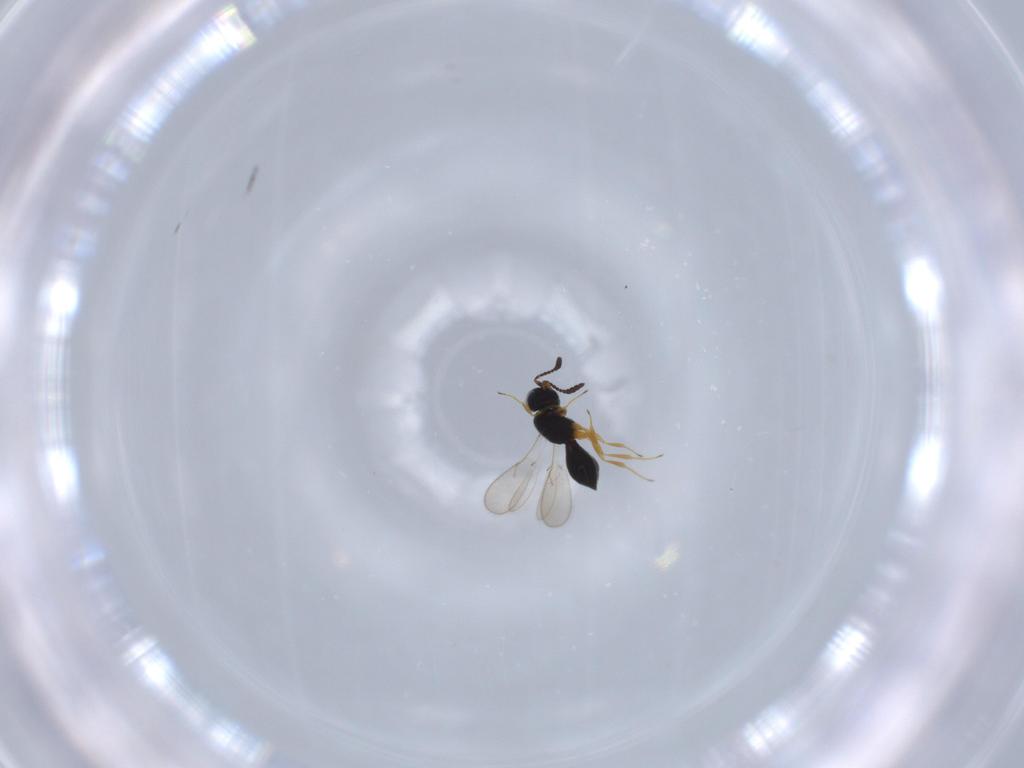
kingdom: Animalia
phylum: Arthropoda
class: Insecta
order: Hymenoptera
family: Scelionidae
